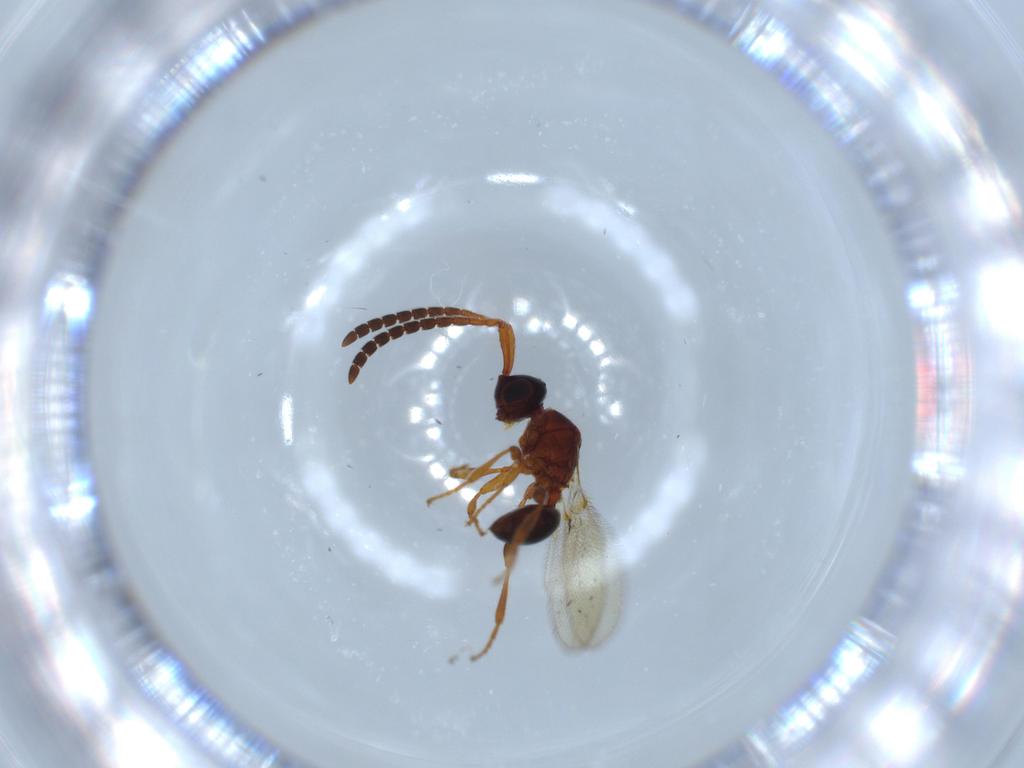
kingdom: Animalia
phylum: Arthropoda
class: Insecta
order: Hymenoptera
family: Diapriidae
